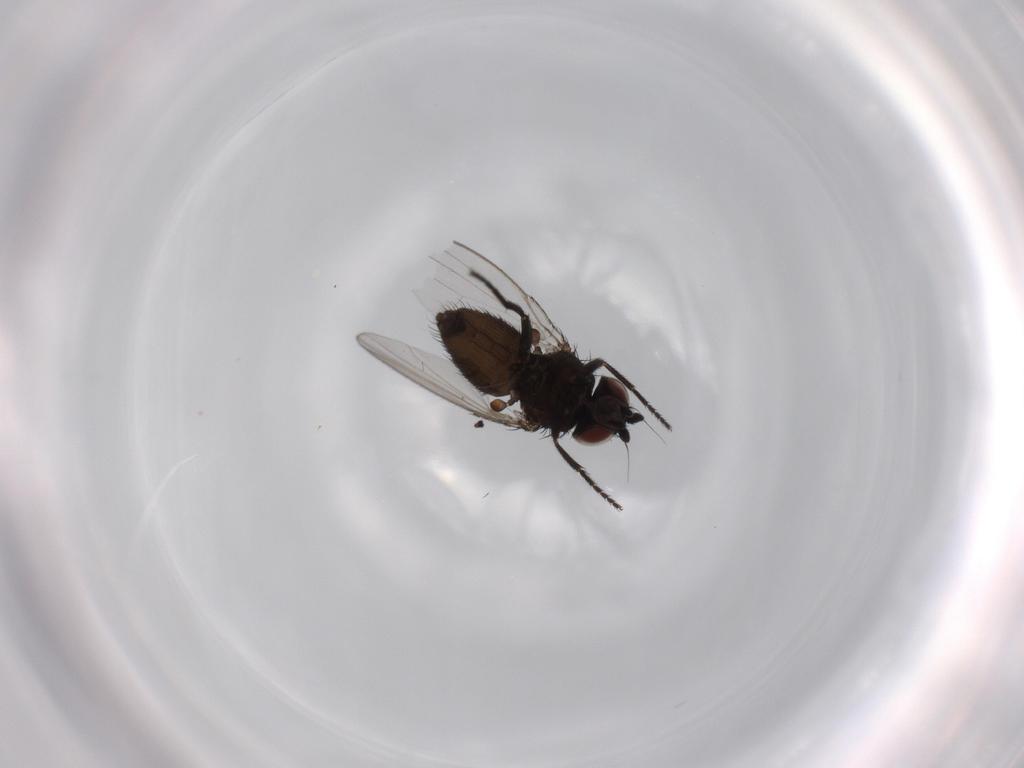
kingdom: Animalia
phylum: Arthropoda
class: Insecta
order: Diptera
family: Milichiidae
